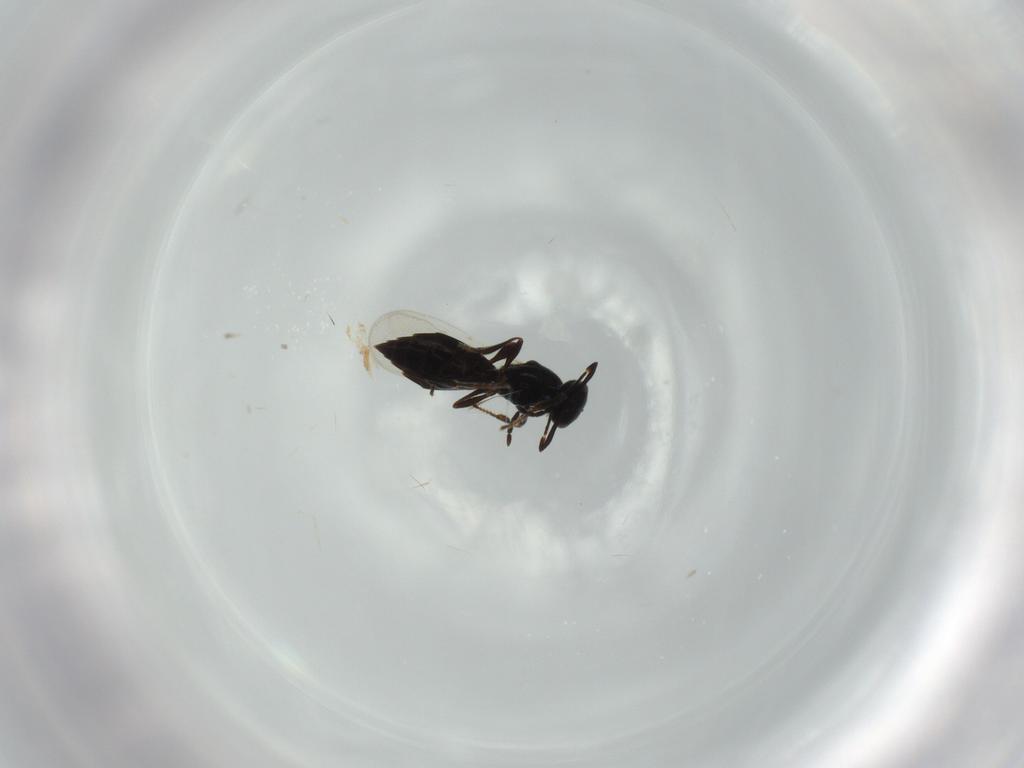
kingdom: Animalia
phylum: Arthropoda
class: Insecta
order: Hymenoptera
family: Platygastridae
